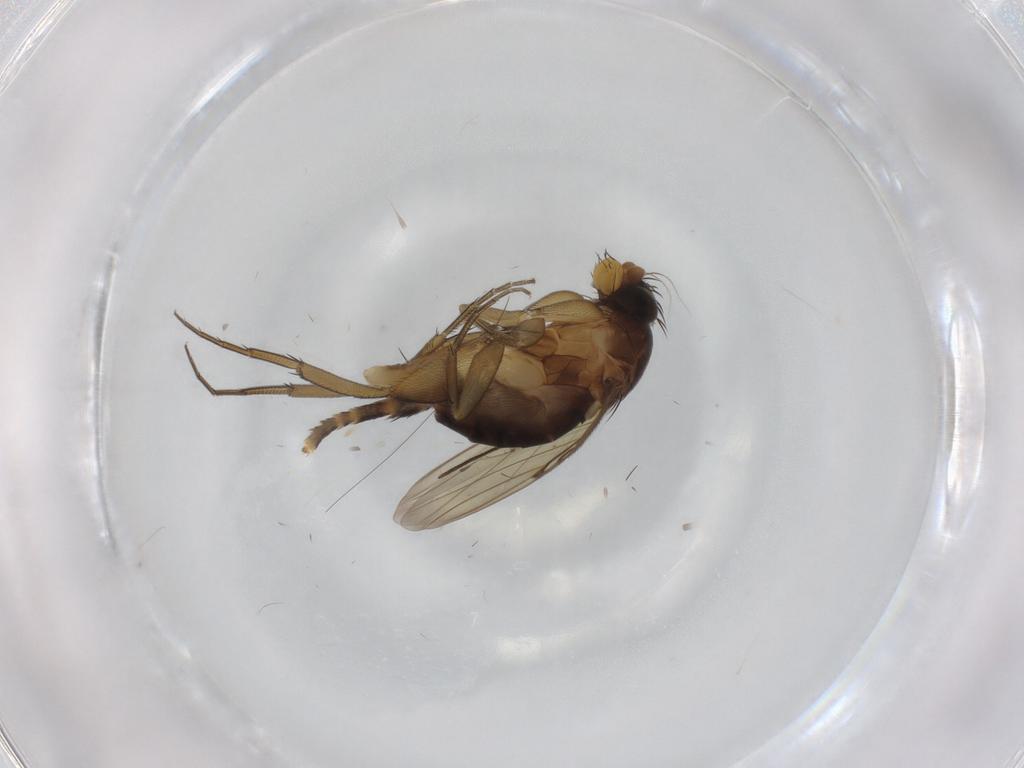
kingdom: Animalia
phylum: Arthropoda
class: Insecta
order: Diptera
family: Phoridae
